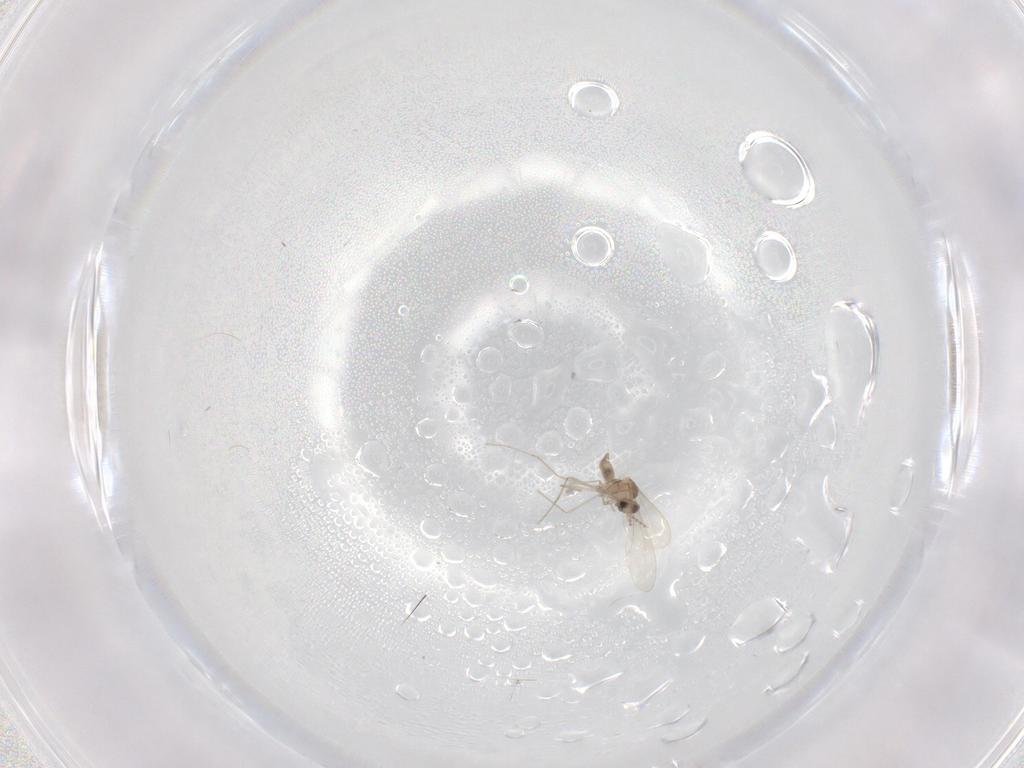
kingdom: Animalia
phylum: Arthropoda
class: Insecta
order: Diptera
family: Cecidomyiidae
